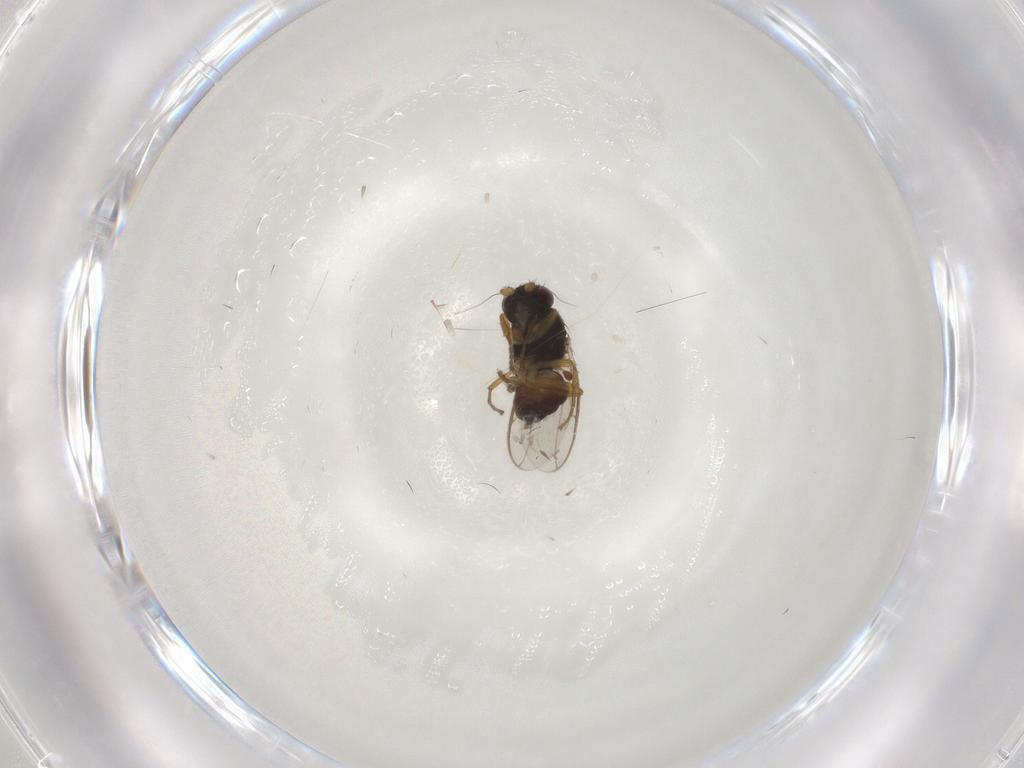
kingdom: Animalia
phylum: Arthropoda
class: Insecta
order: Diptera
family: Sphaeroceridae
